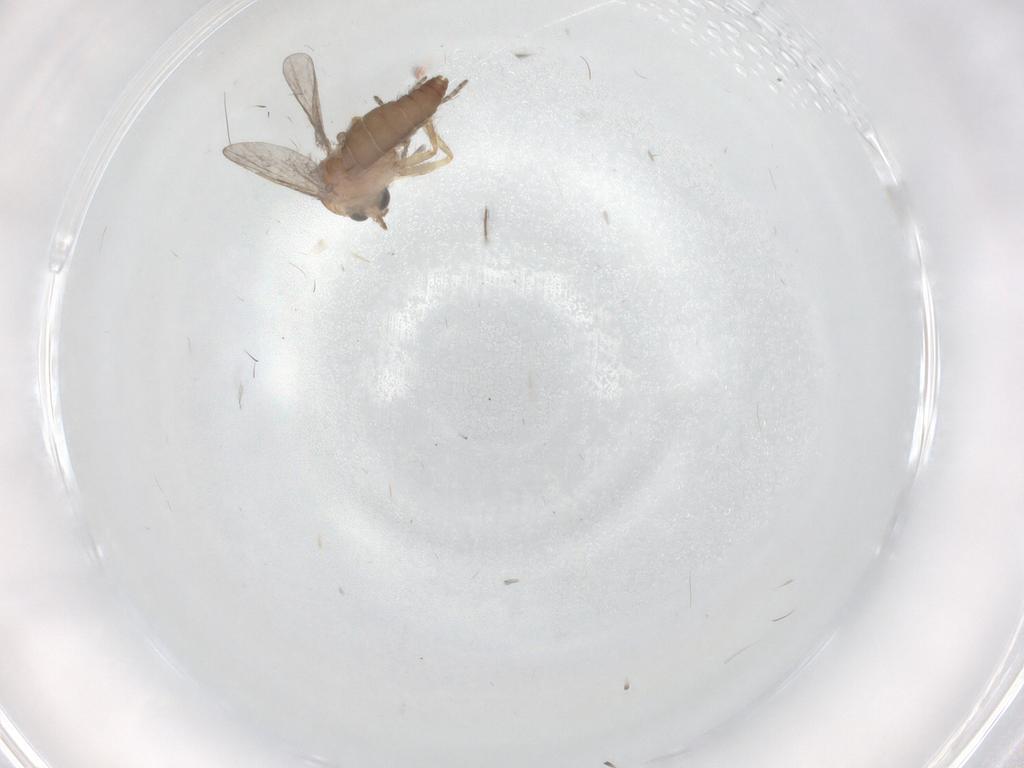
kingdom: Animalia
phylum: Arthropoda
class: Insecta
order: Diptera
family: Ceratopogonidae
